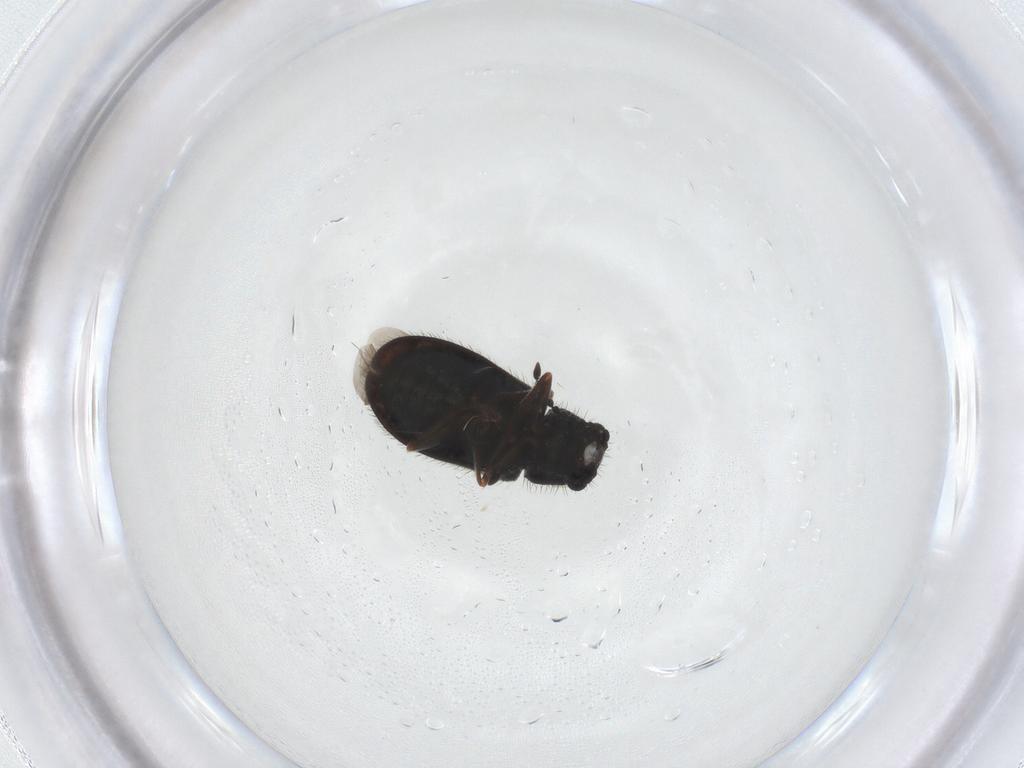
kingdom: Animalia
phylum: Arthropoda
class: Insecta
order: Coleoptera
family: Melyridae
